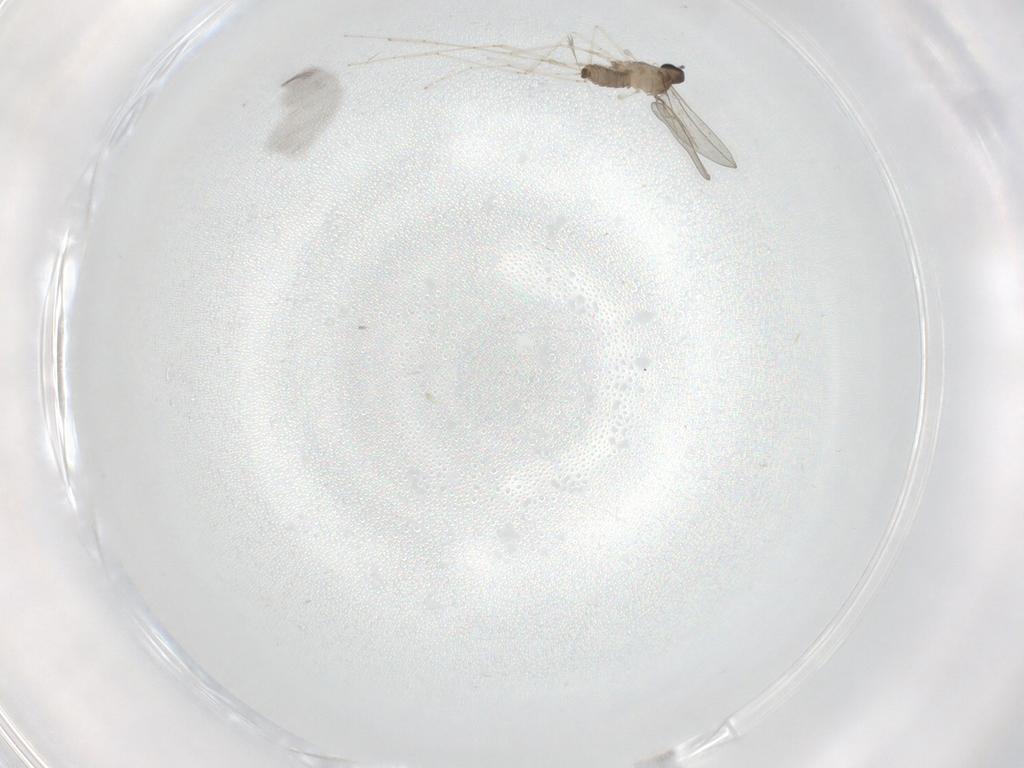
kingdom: Animalia
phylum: Arthropoda
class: Insecta
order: Diptera
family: Cecidomyiidae
